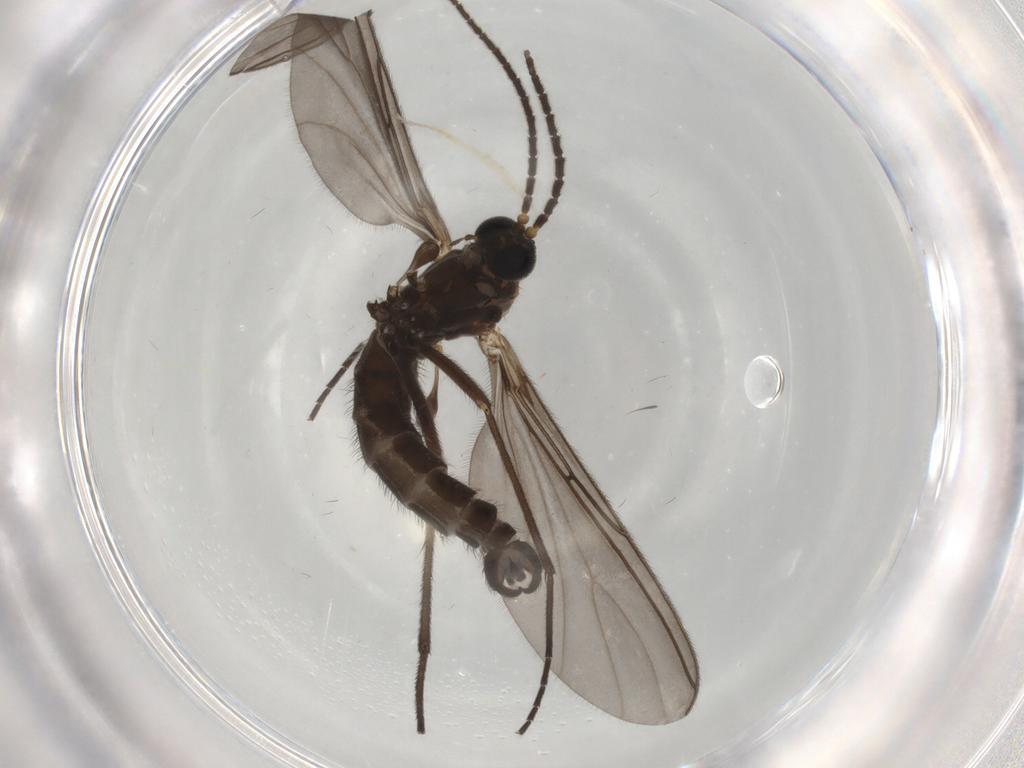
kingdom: Animalia
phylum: Arthropoda
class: Insecta
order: Diptera
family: Sciaridae
